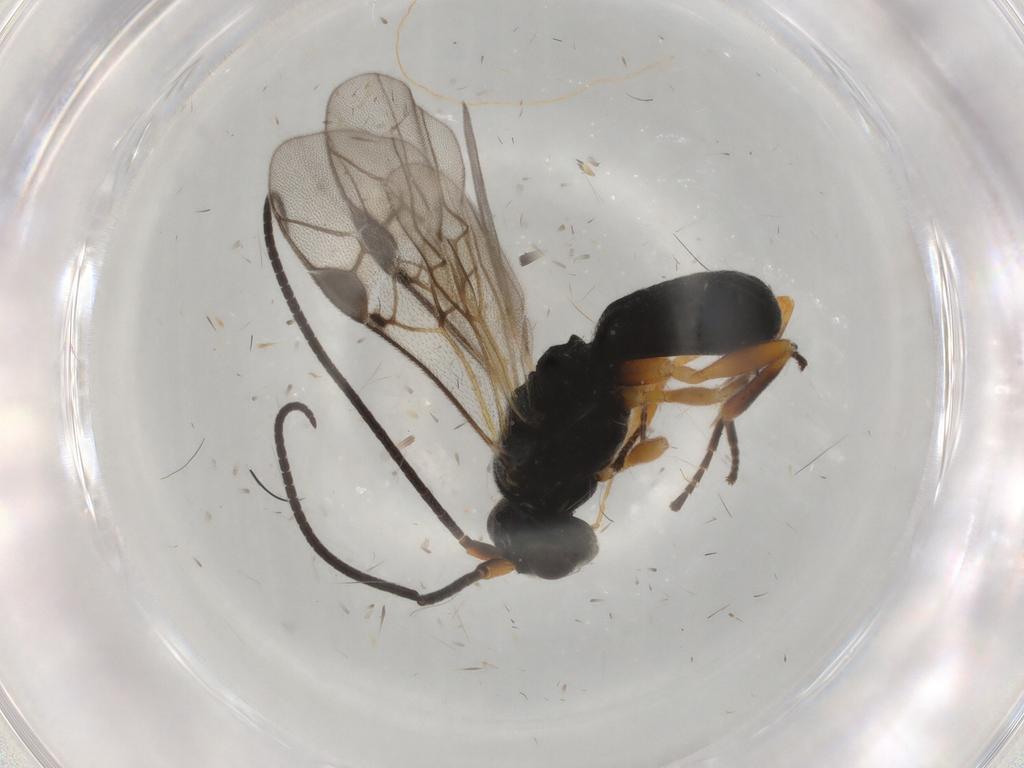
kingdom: Animalia
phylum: Arthropoda
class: Insecta
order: Hymenoptera
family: Braconidae
